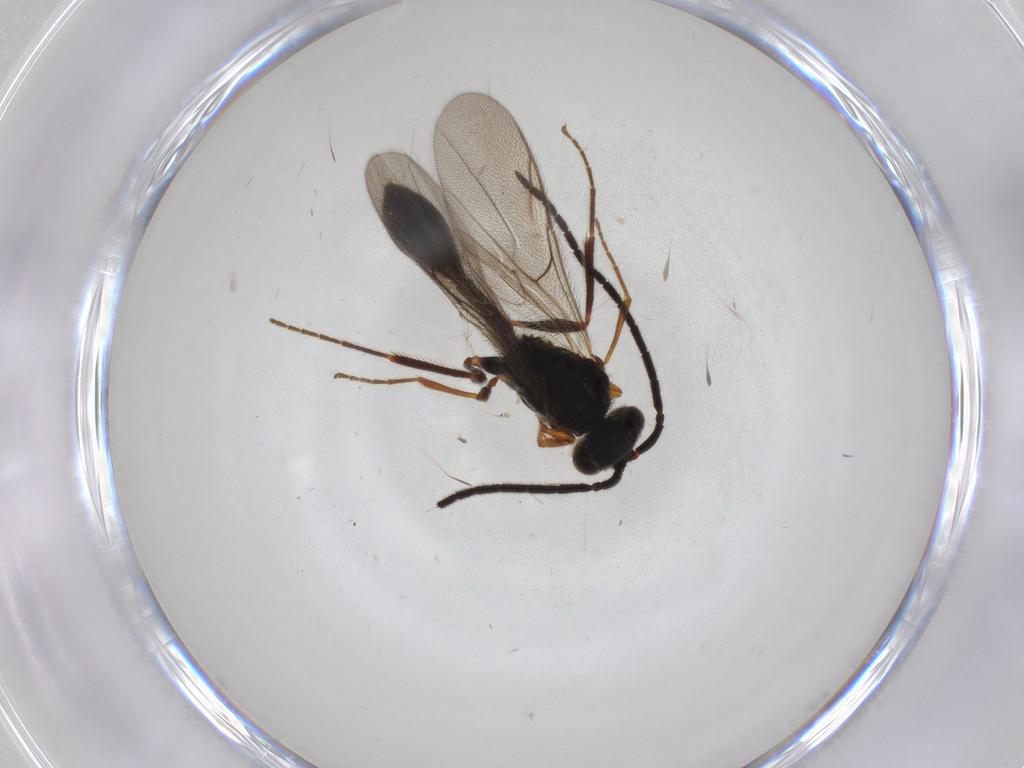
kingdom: Animalia
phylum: Arthropoda
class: Insecta
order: Hymenoptera
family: Diapriidae
